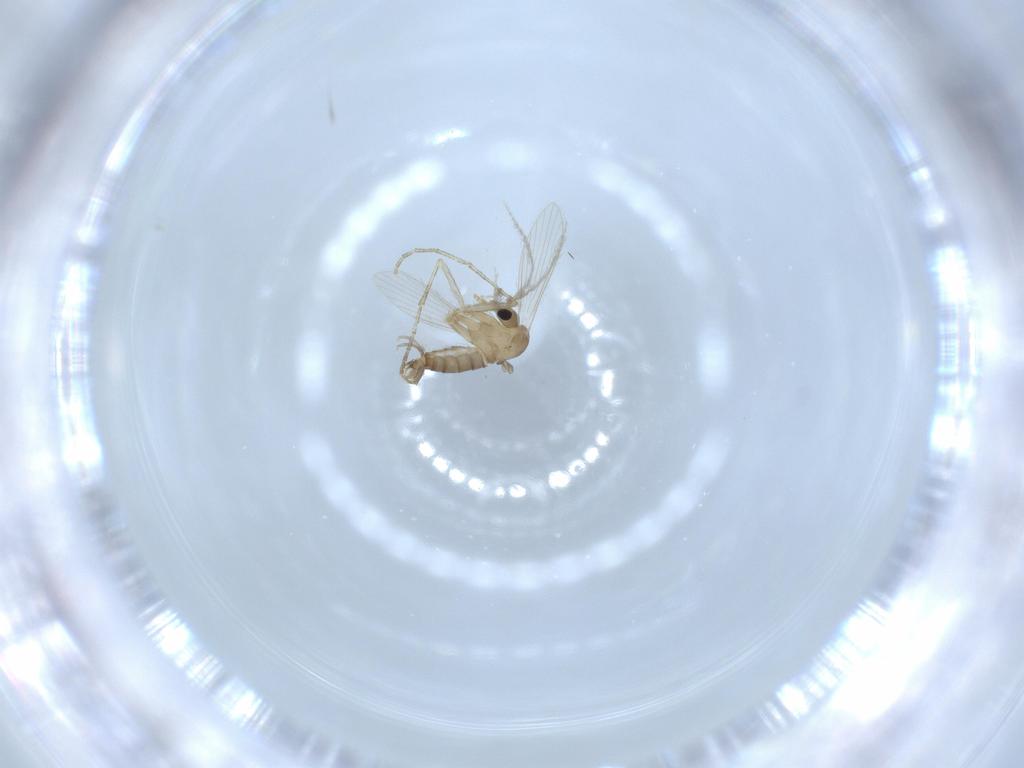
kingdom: Animalia
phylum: Arthropoda
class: Insecta
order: Diptera
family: Psychodidae
